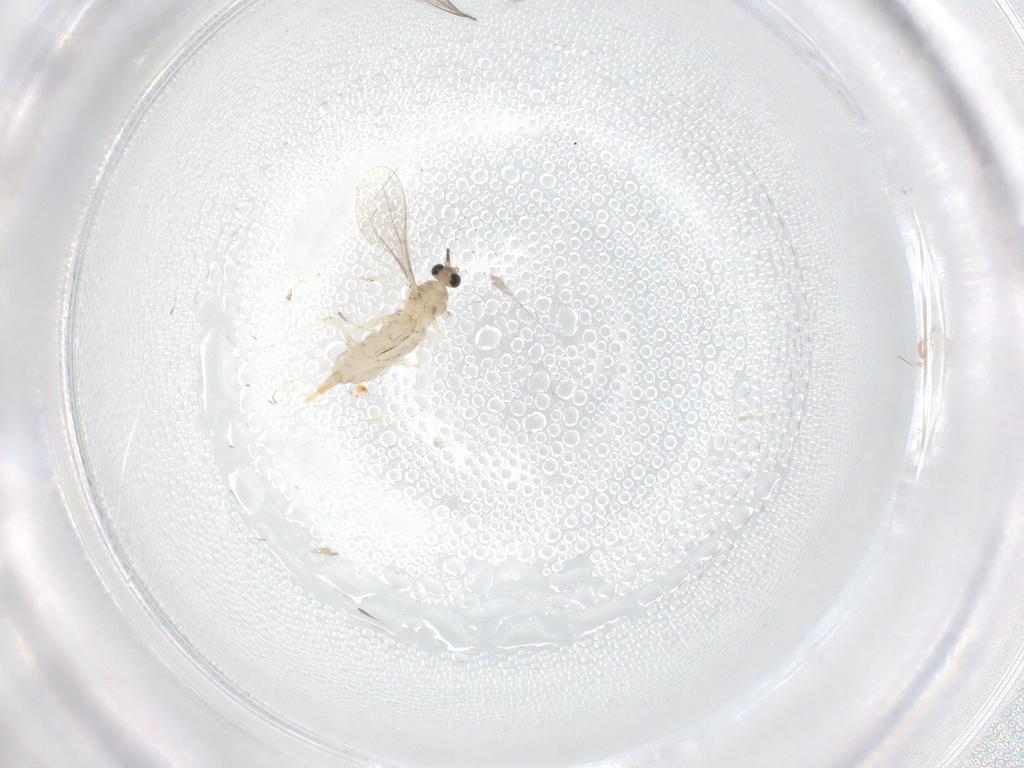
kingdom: Animalia
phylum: Arthropoda
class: Insecta
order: Diptera
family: Cecidomyiidae
